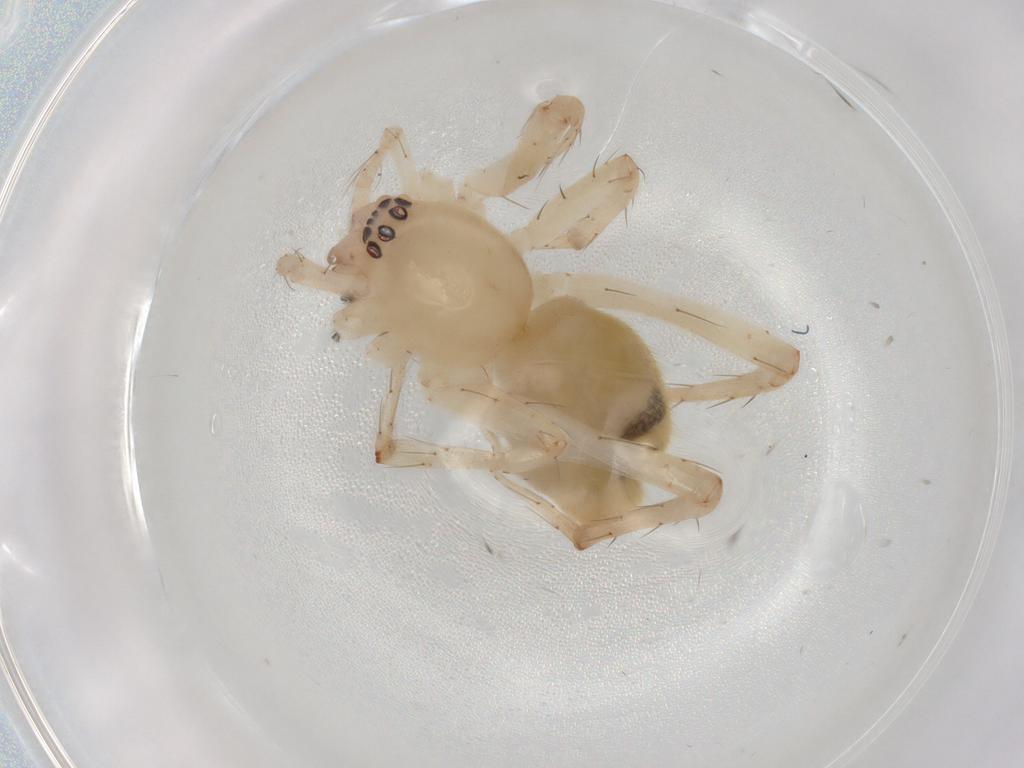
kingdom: Animalia
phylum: Arthropoda
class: Arachnida
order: Araneae
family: Anyphaenidae
